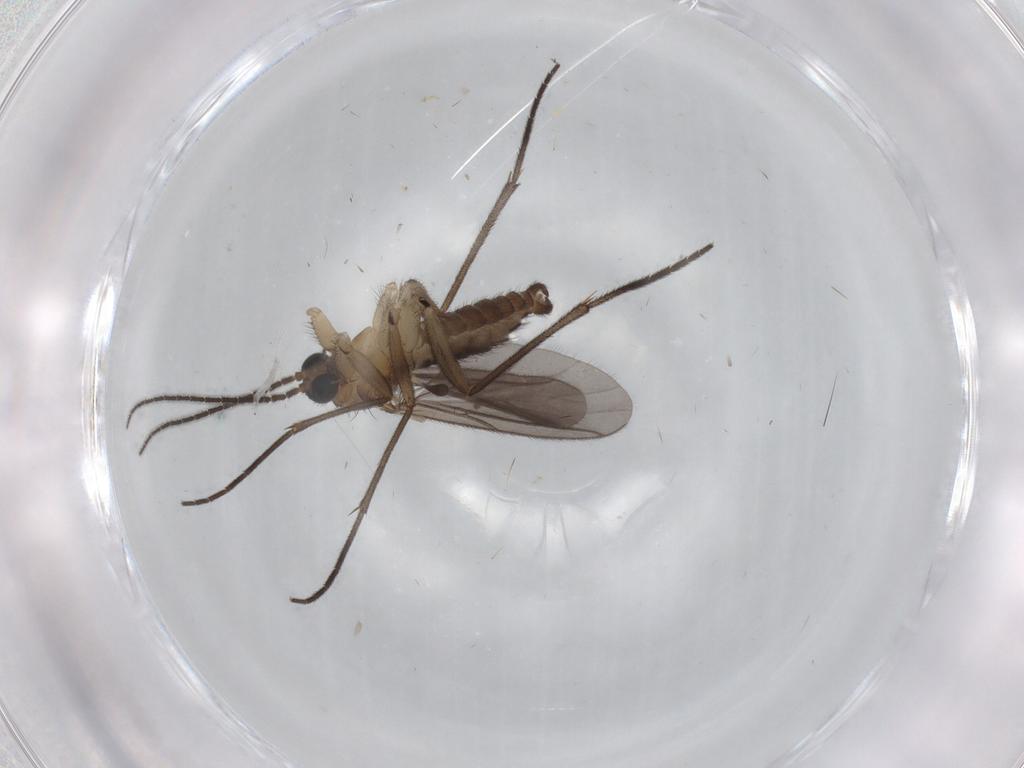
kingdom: Animalia
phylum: Arthropoda
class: Insecta
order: Diptera
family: Sciaridae
